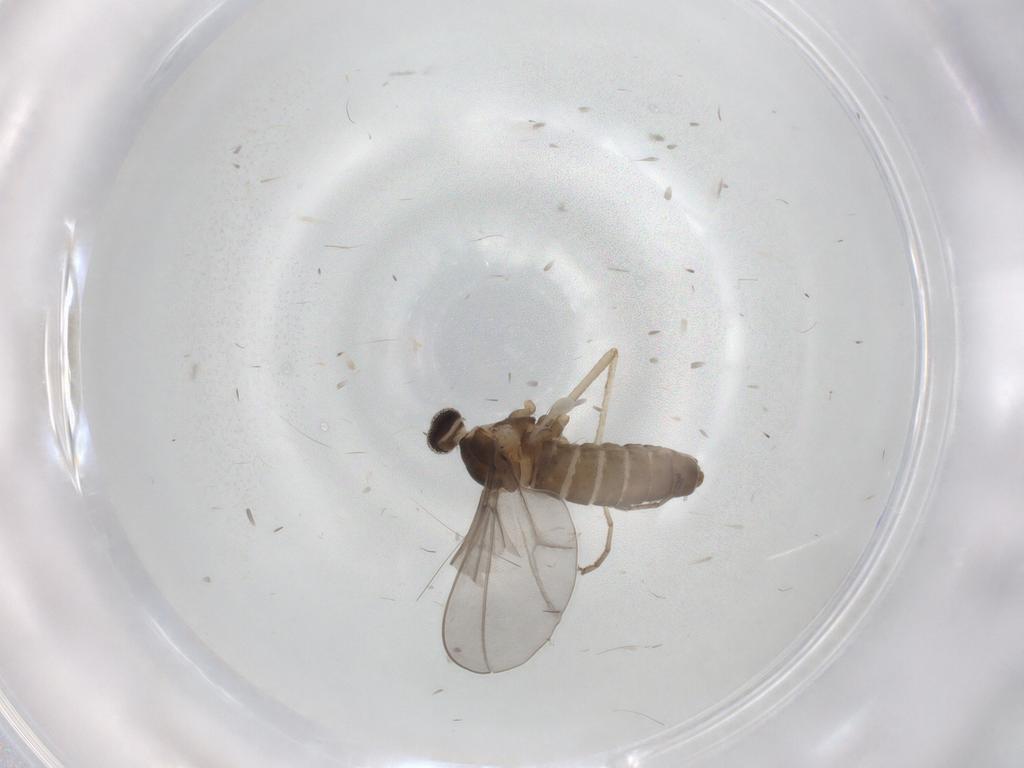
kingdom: Animalia
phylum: Arthropoda
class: Insecta
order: Diptera
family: Cecidomyiidae
